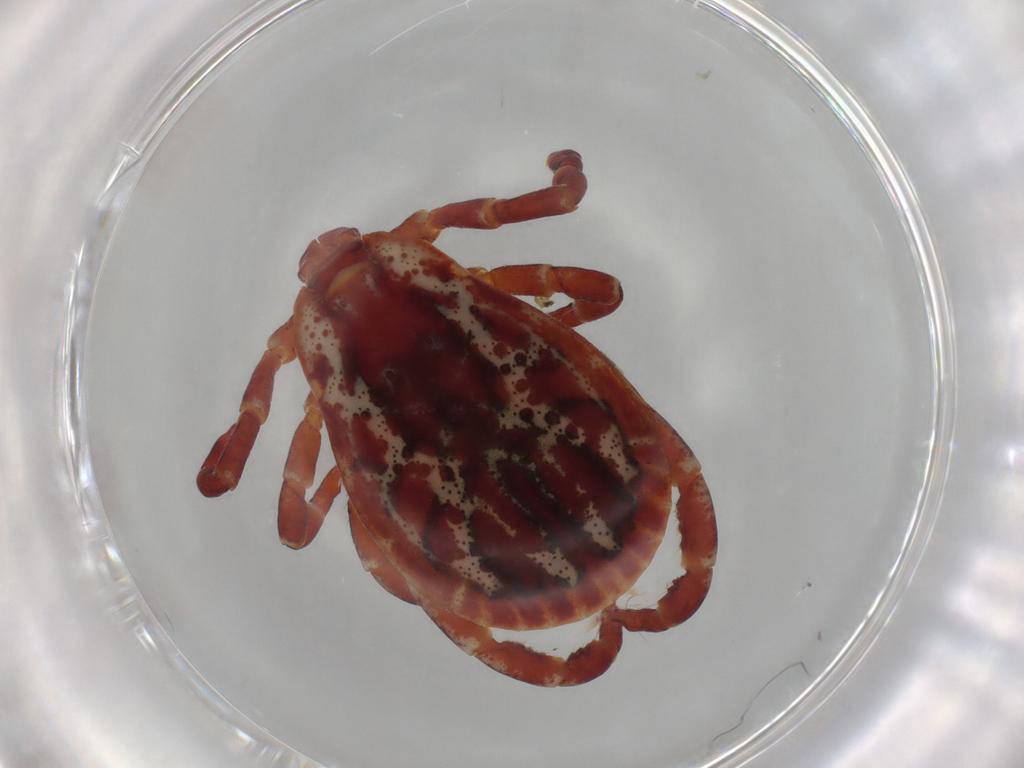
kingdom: Animalia
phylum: Arthropoda
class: Arachnida
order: Ixodida
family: Ixodidae
